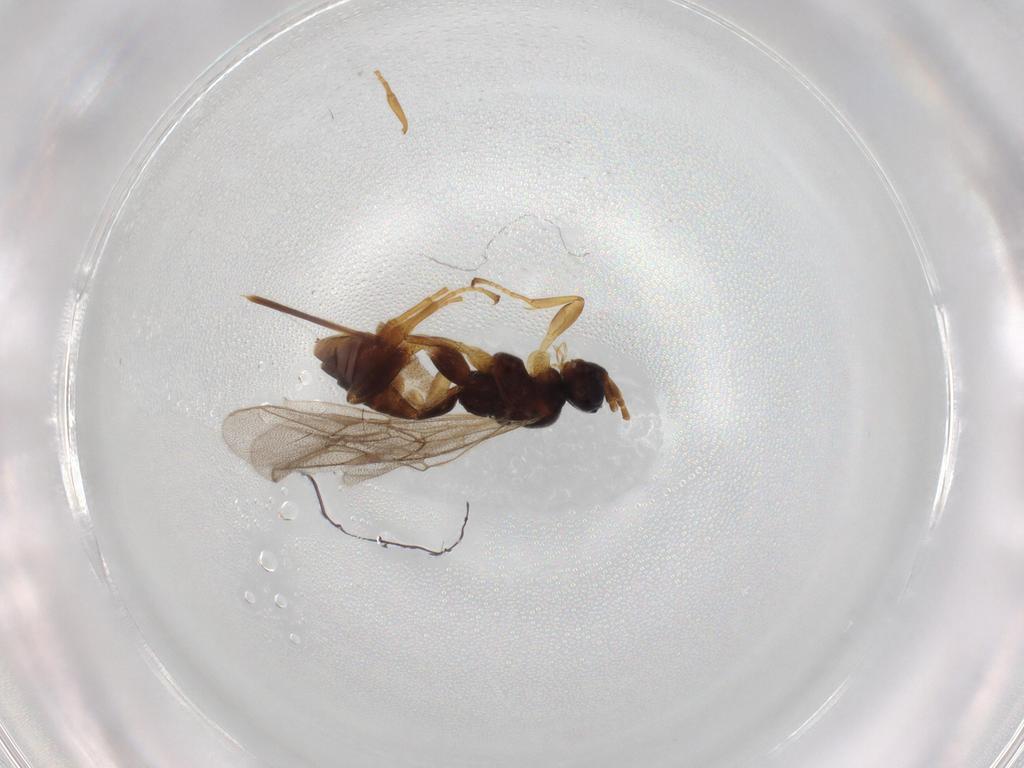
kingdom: Animalia
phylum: Arthropoda
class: Insecta
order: Hymenoptera
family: Ichneumonidae
